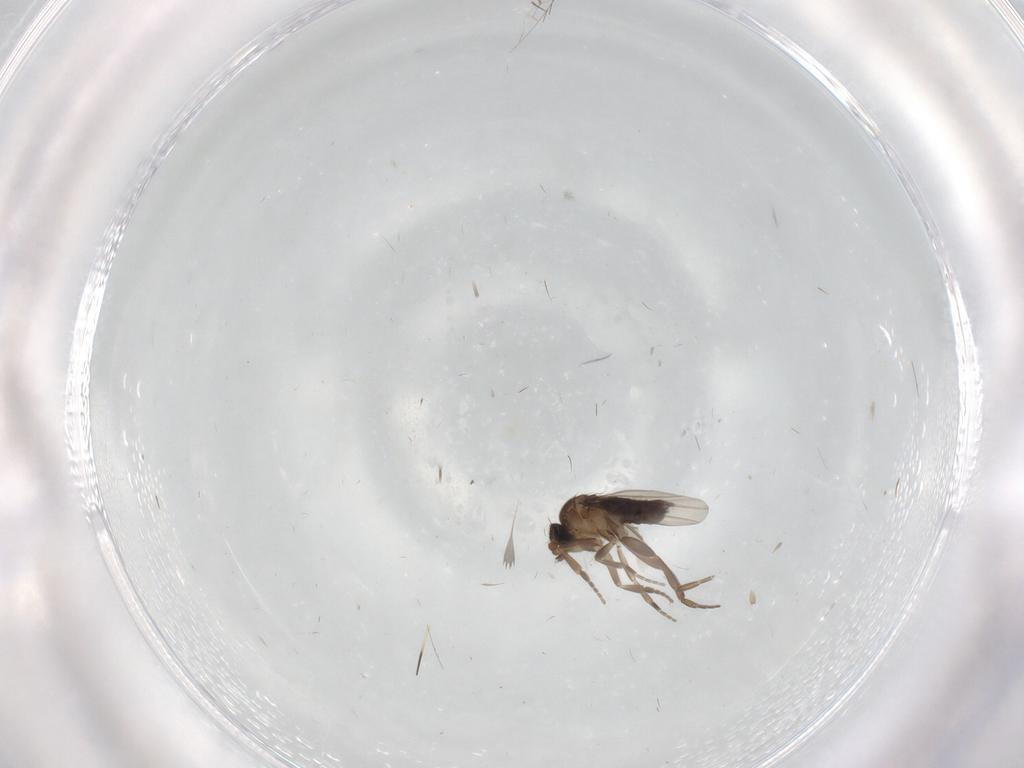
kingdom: Animalia
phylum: Arthropoda
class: Insecta
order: Diptera
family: Phoridae
